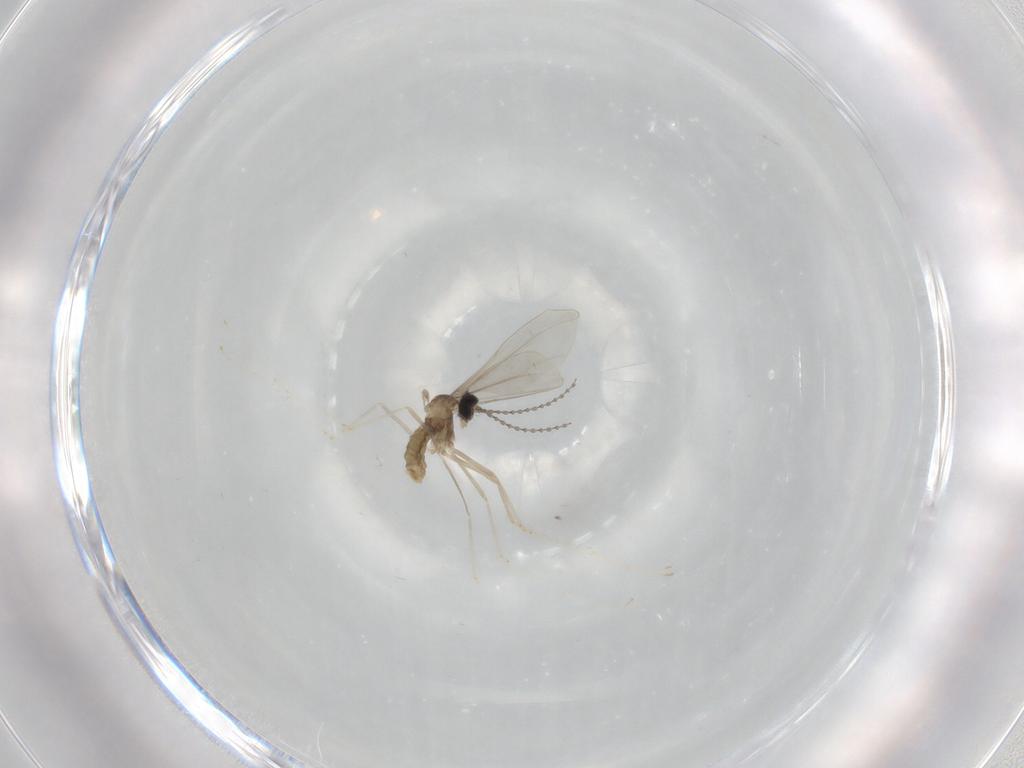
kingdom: Animalia
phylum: Arthropoda
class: Insecta
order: Diptera
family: Cecidomyiidae
